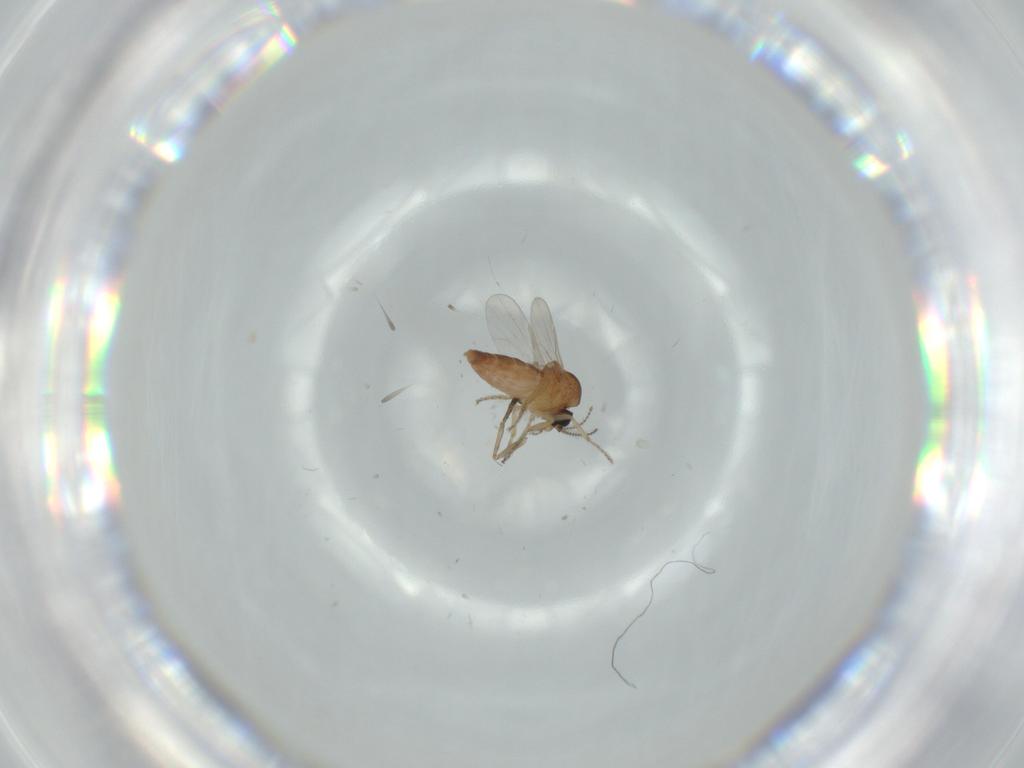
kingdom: Animalia
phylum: Arthropoda
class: Insecta
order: Diptera
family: Ceratopogonidae
